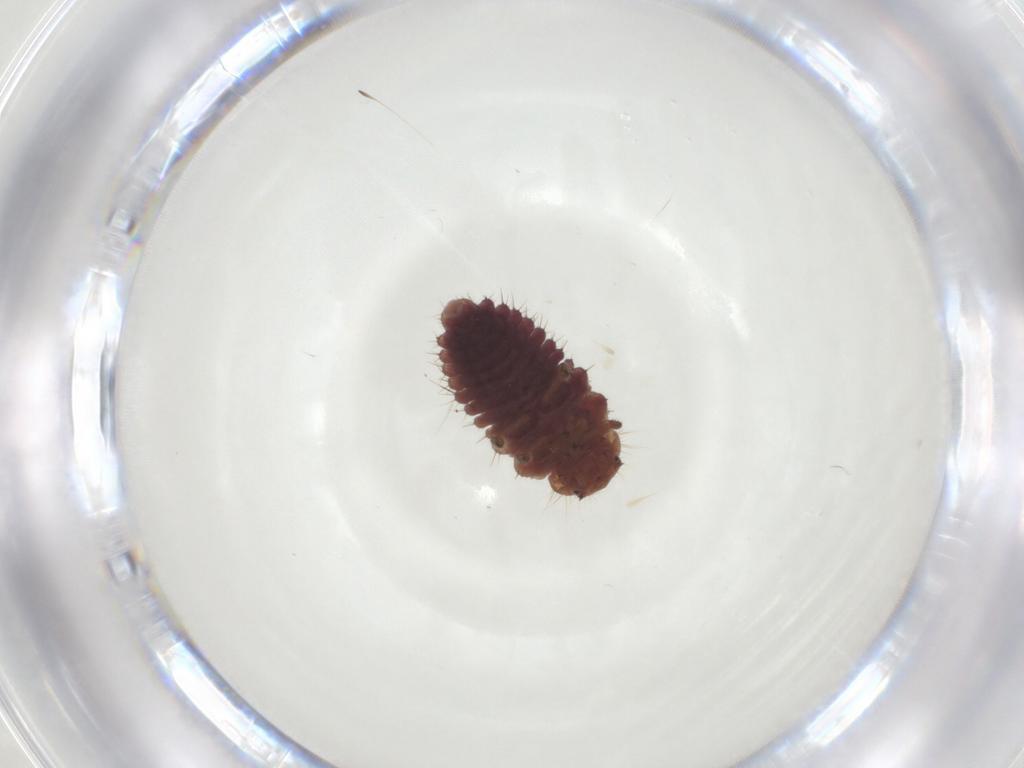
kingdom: Animalia
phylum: Arthropoda
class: Insecta
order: Coleoptera
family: Coccinellidae
